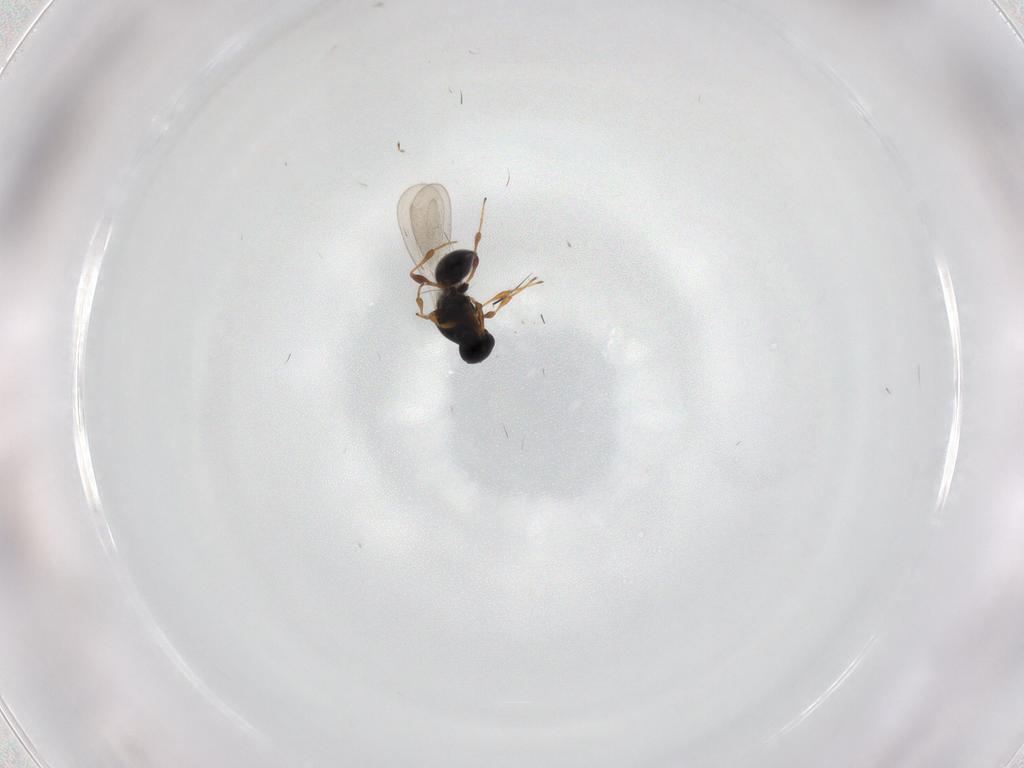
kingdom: Animalia
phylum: Arthropoda
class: Insecta
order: Hymenoptera
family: Platygastridae
